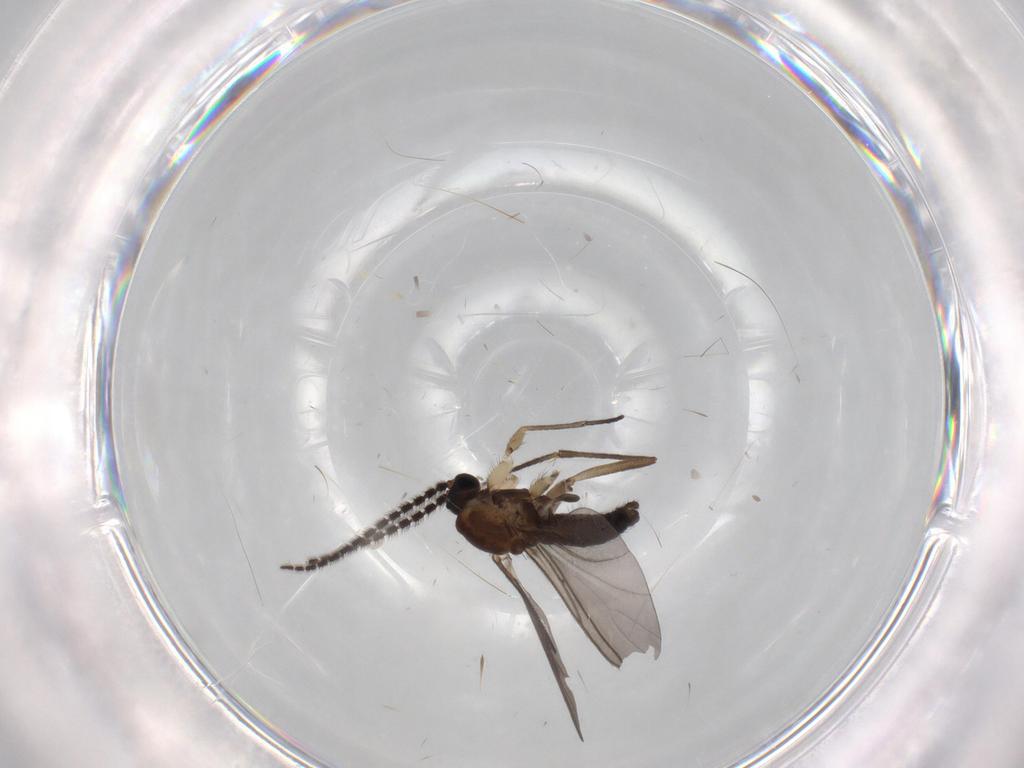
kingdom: Animalia
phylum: Arthropoda
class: Insecta
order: Diptera
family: Sciaridae
